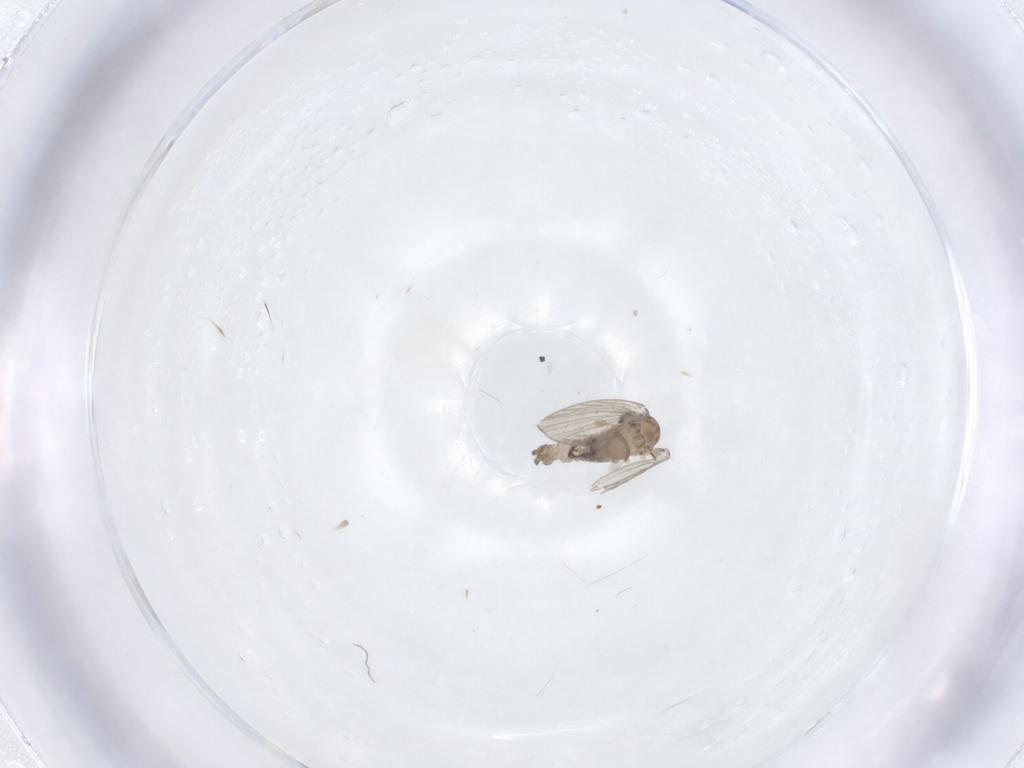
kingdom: Animalia
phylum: Arthropoda
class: Insecta
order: Diptera
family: Psychodidae
